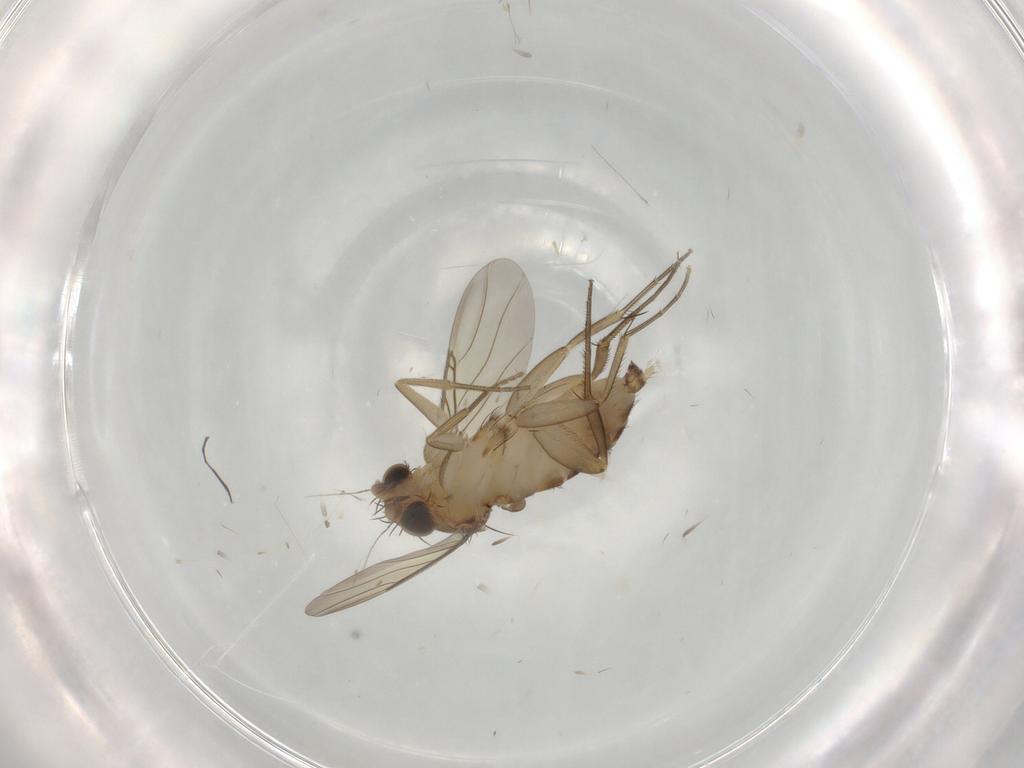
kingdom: Animalia
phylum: Arthropoda
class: Insecta
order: Diptera
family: Sciaridae
